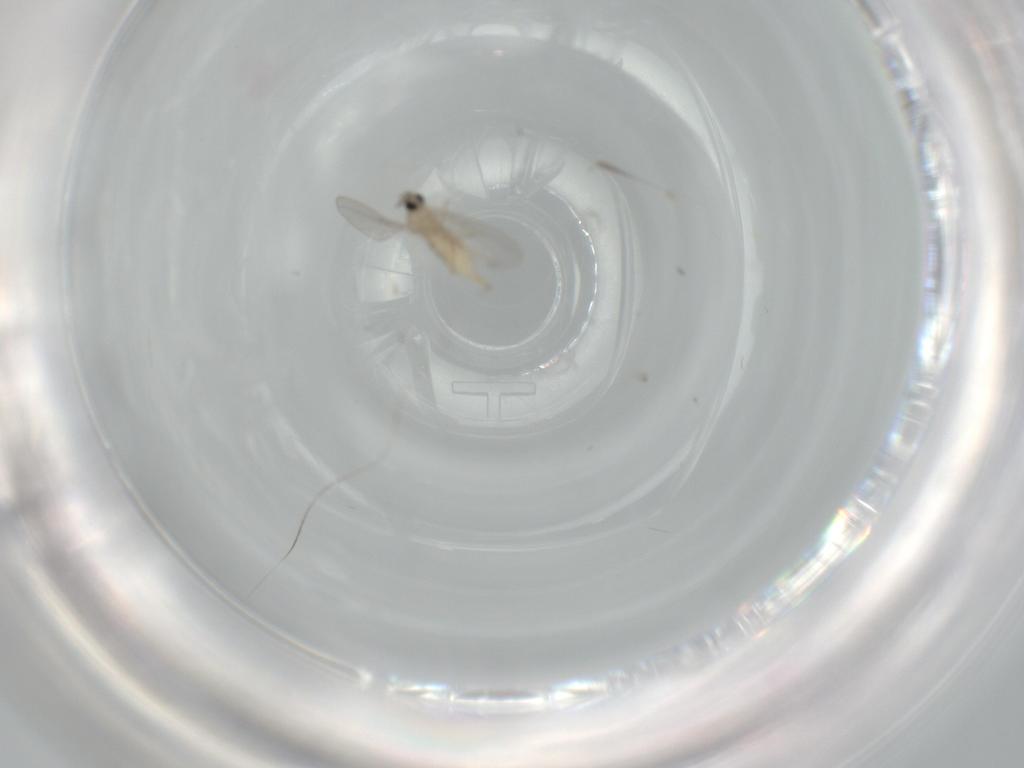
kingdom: Animalia
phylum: Arthropoda
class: Insecta
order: Diptera
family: Cecidomyiidae
